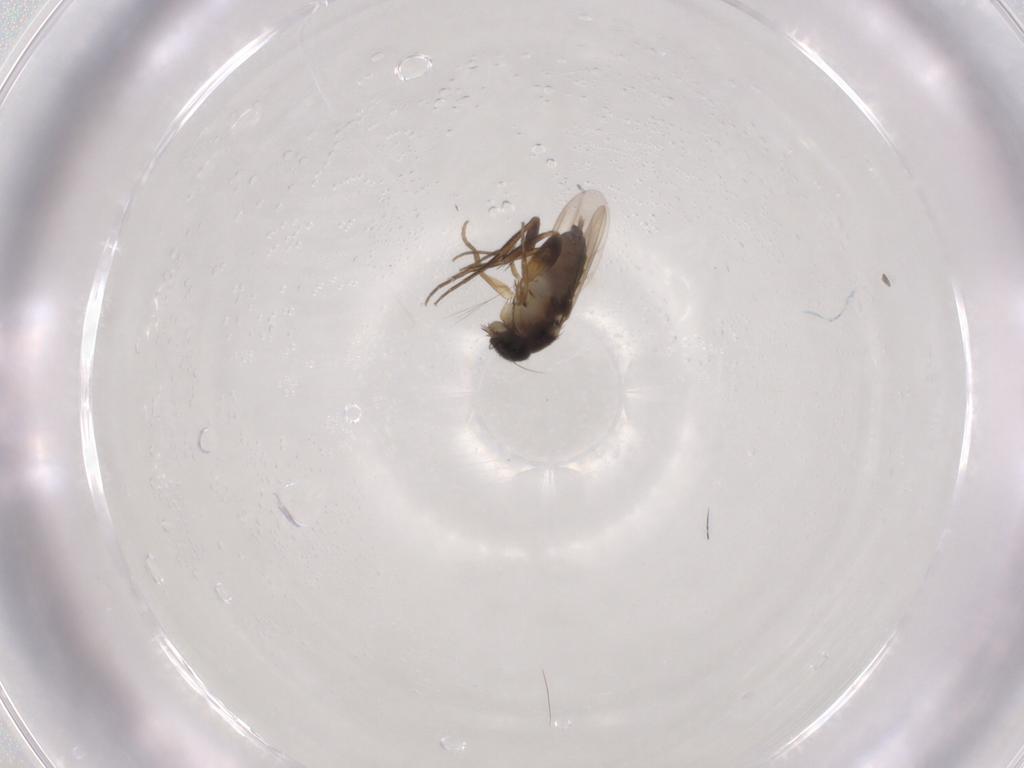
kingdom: Animalia
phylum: Arthropoda
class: Insecta
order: Diptera
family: Phoridae
